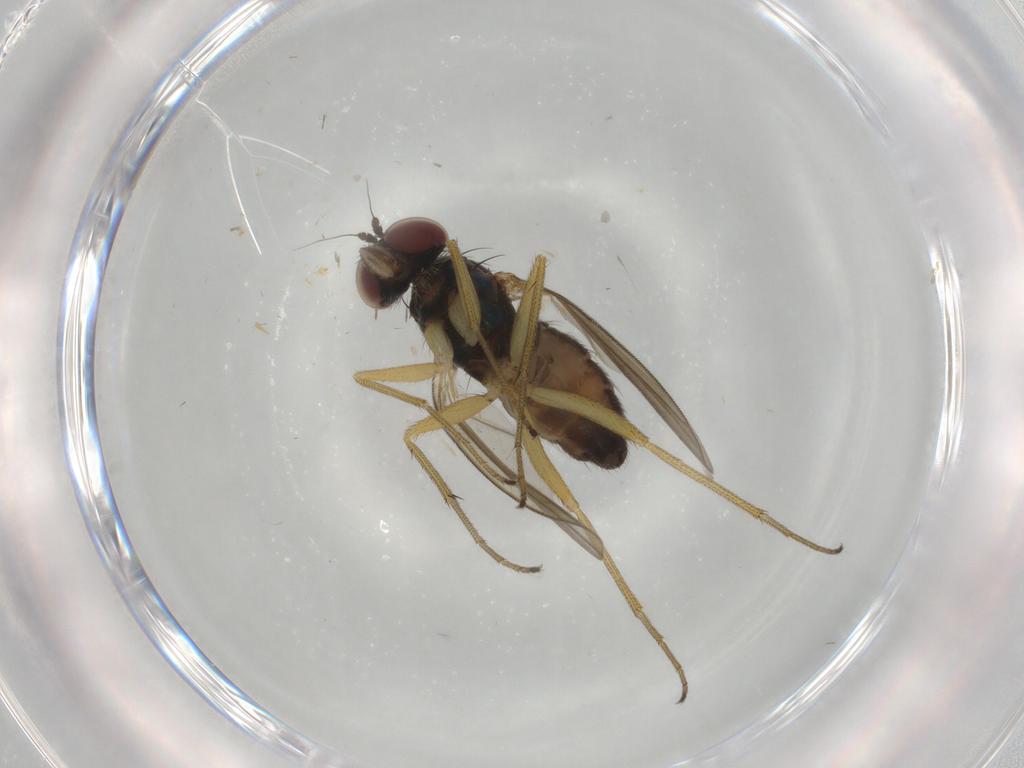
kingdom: Animalia
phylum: Arthropoda
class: Insecta
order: Diptera
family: Dolichopodidae
